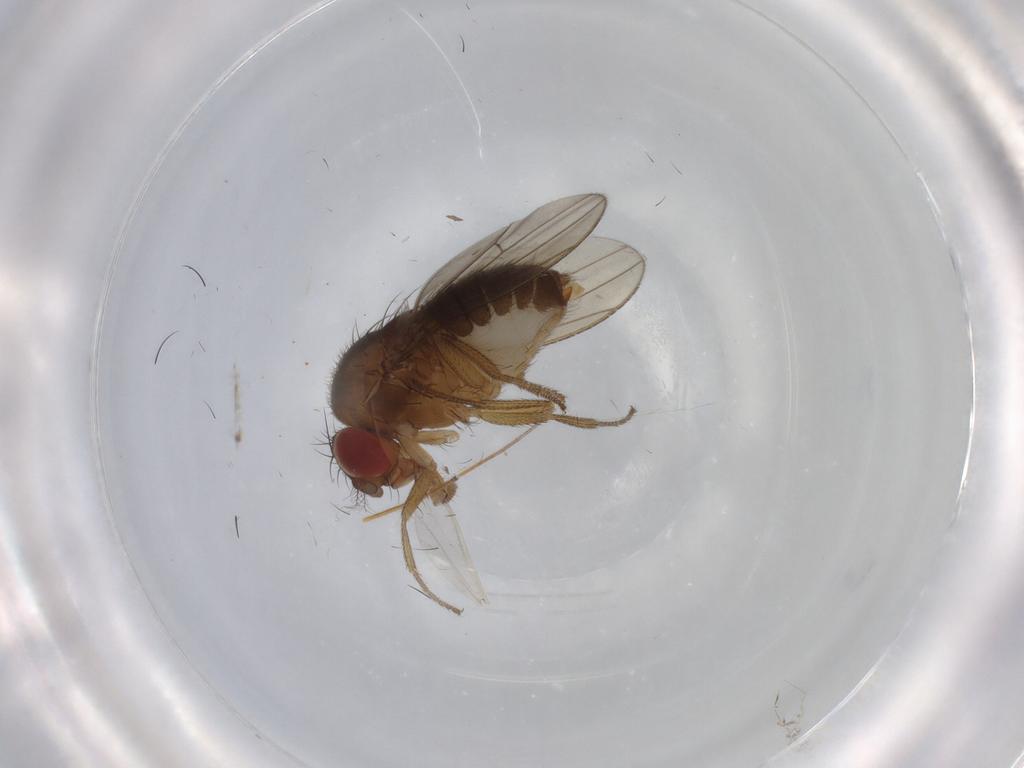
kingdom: Animalia
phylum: Arthropoda
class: Insecta
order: Diptera
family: Drosophilidae
